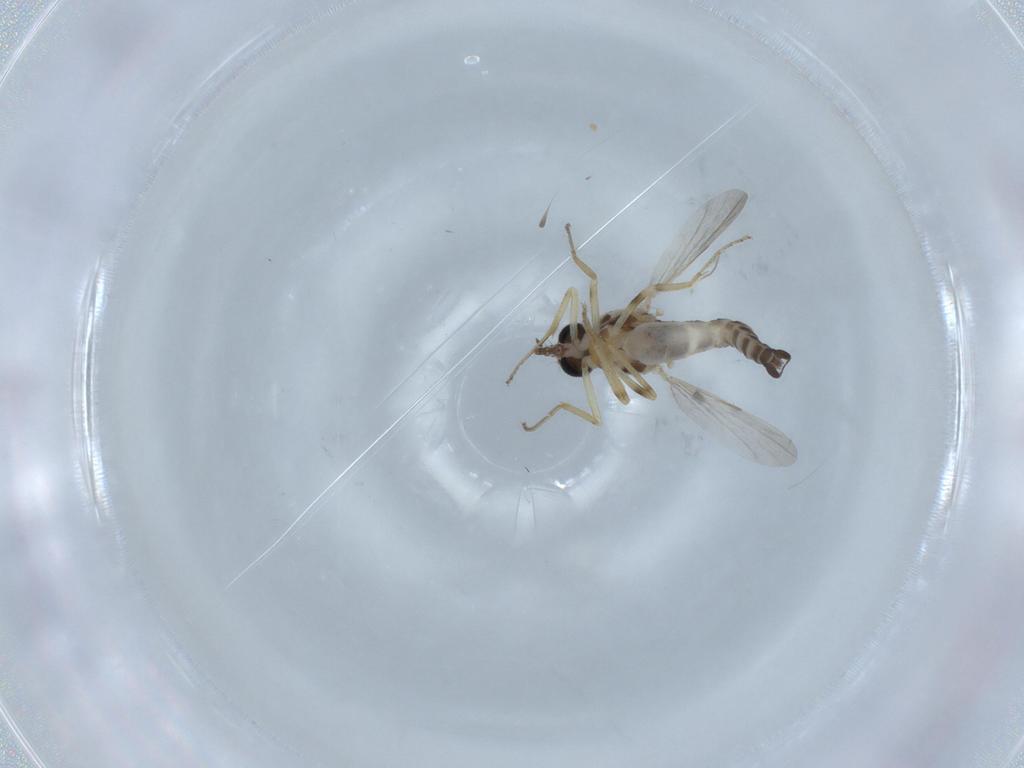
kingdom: Animalia
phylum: Arthropoda
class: Insecta
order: Diptera
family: Ceratopogonidae
